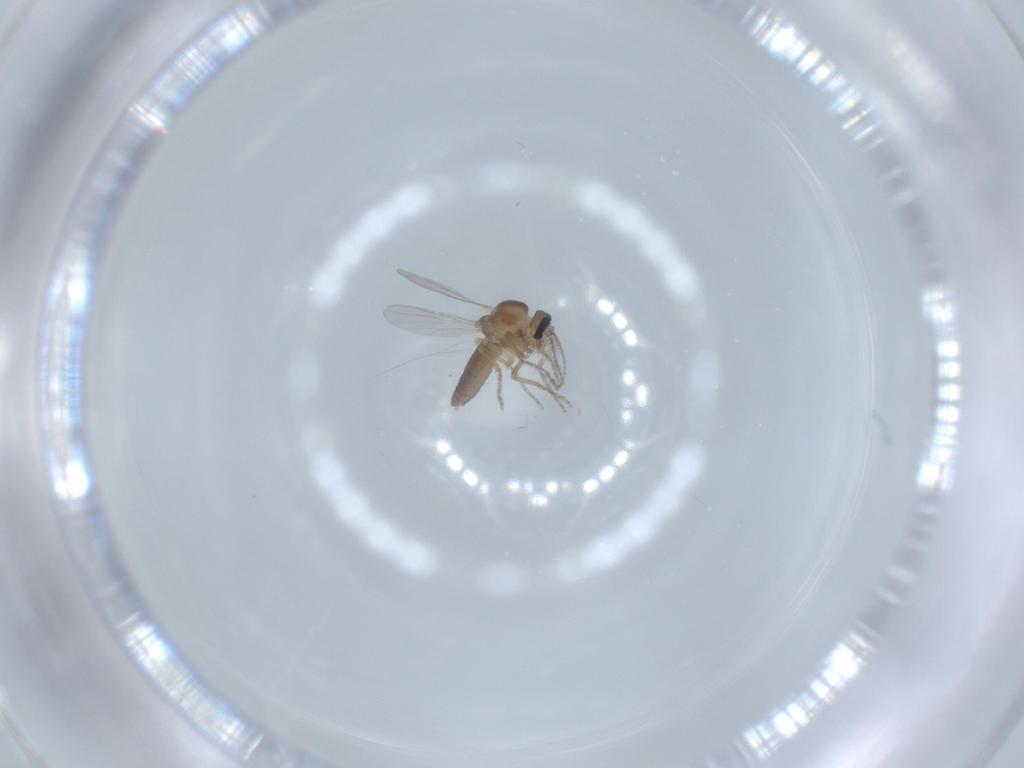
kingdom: Animalia
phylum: Arthropoda
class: Insecta
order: Diptera
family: Ceratopogonidae
